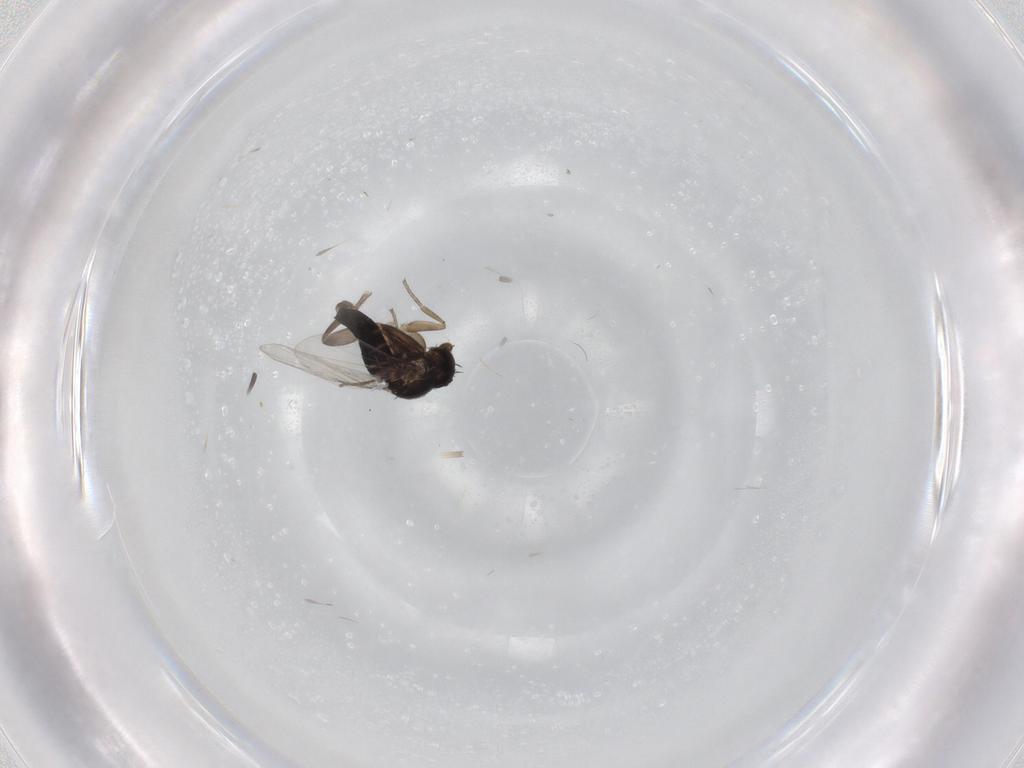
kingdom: Animalia
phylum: Arthropoda
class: Insecta
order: Diptera
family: Phoridae
